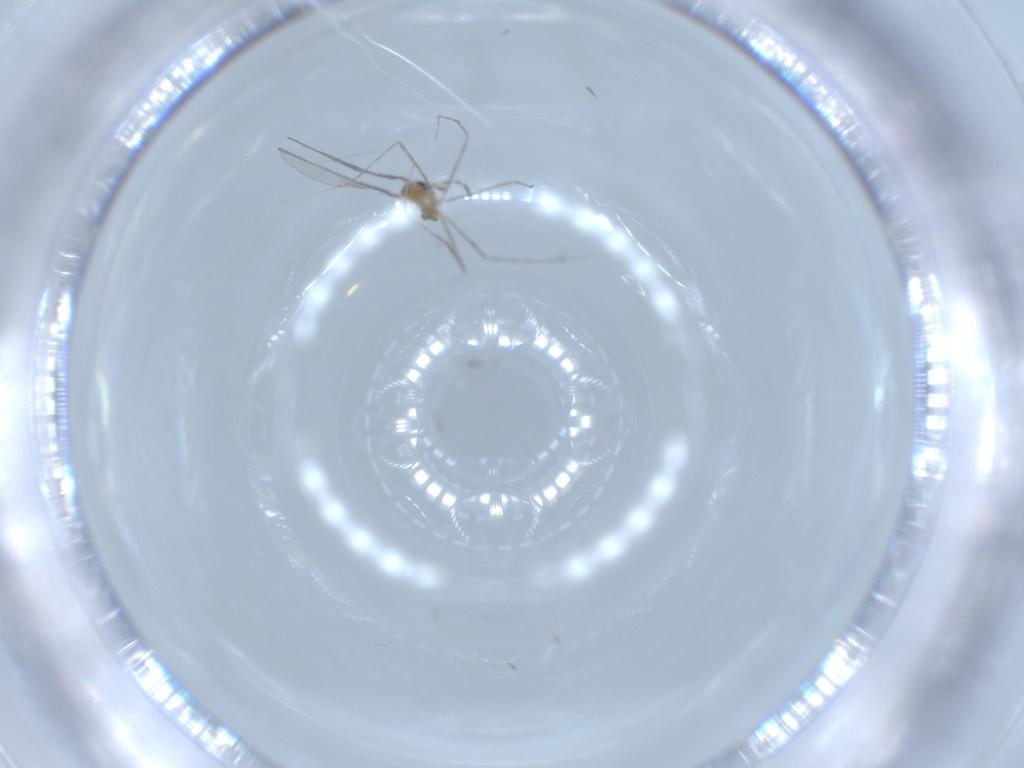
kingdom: Animalia
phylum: Arthropoda
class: Insecta
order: Diptera
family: Cecidomyiidae
